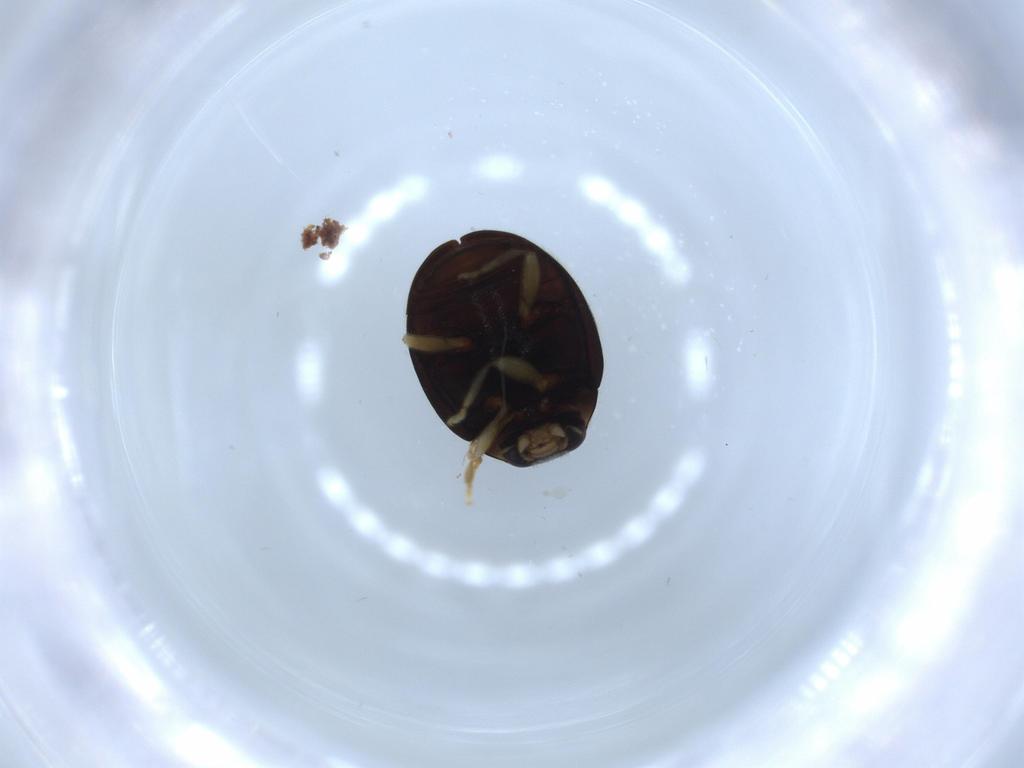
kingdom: Animalia
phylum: Arthropoda
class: Insecta
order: Coleoptera
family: Coccinellidae
